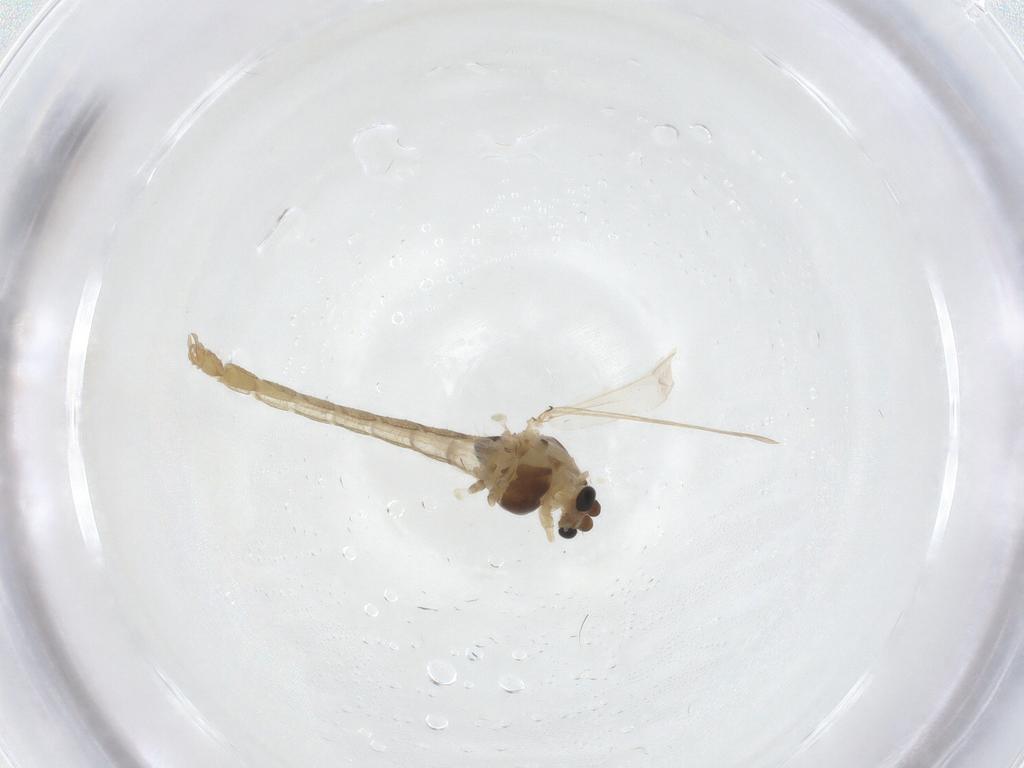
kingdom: Animalia
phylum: Arthropoda
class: Insecta
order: Diptera
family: Chironomidae
